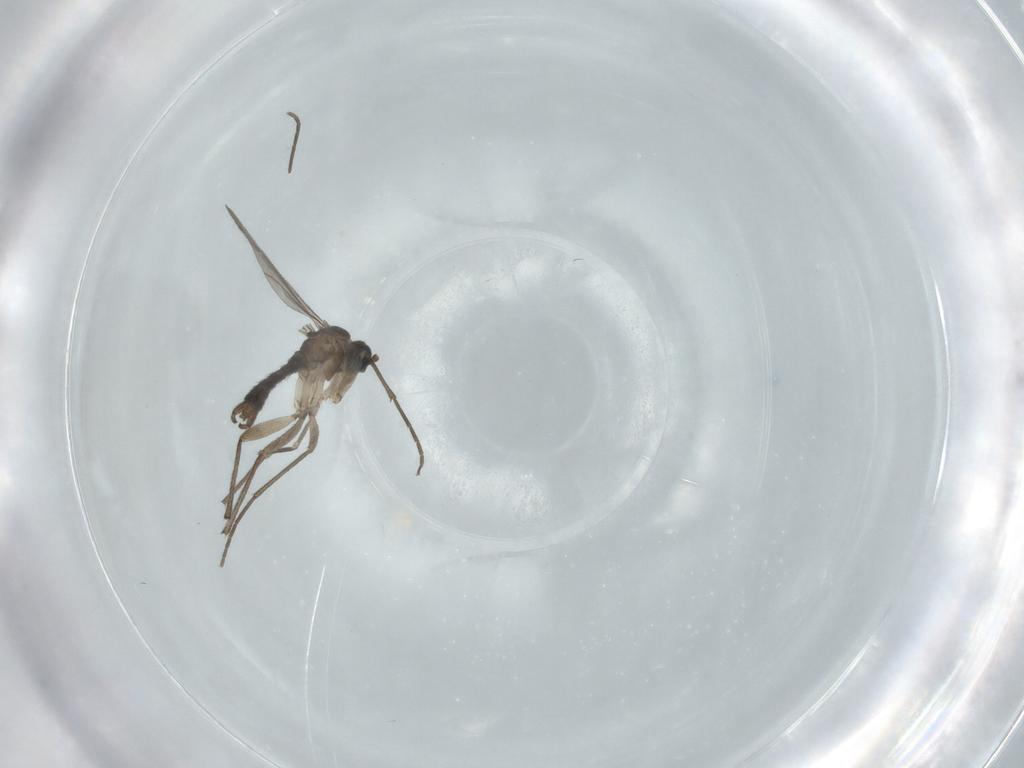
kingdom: Animalia
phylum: Arthropoda
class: Insecta
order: Diptera
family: Sciaridae
